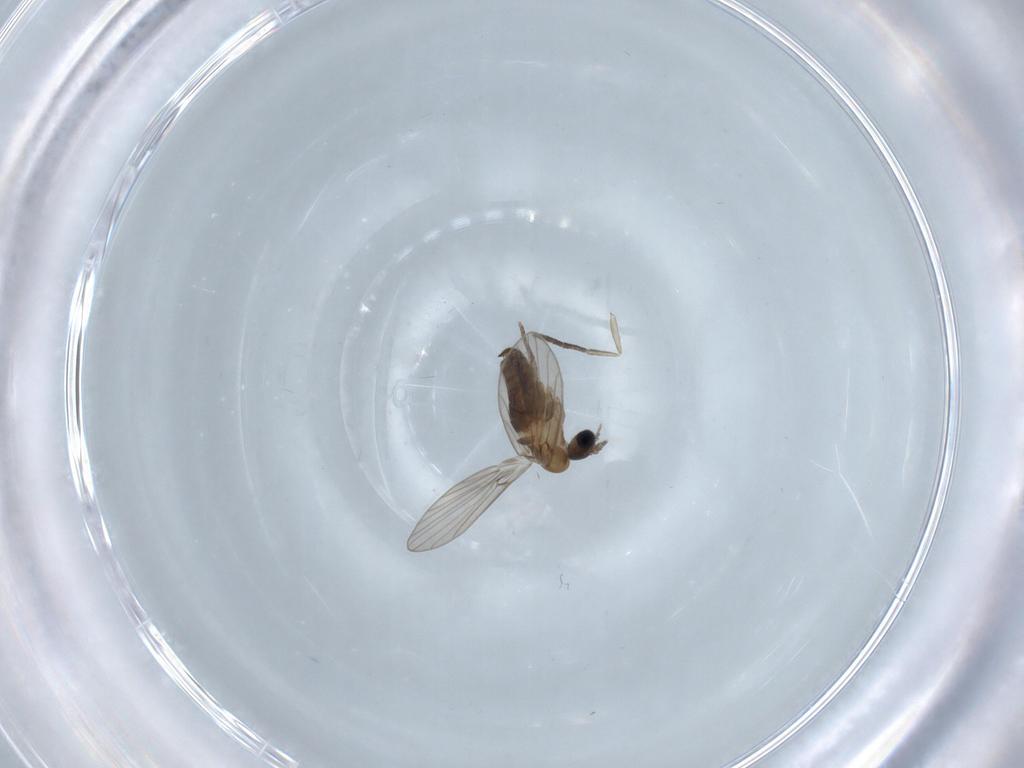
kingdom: Animalia
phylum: Arthropoda
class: Insecta
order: Diptera
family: Psychodidae
